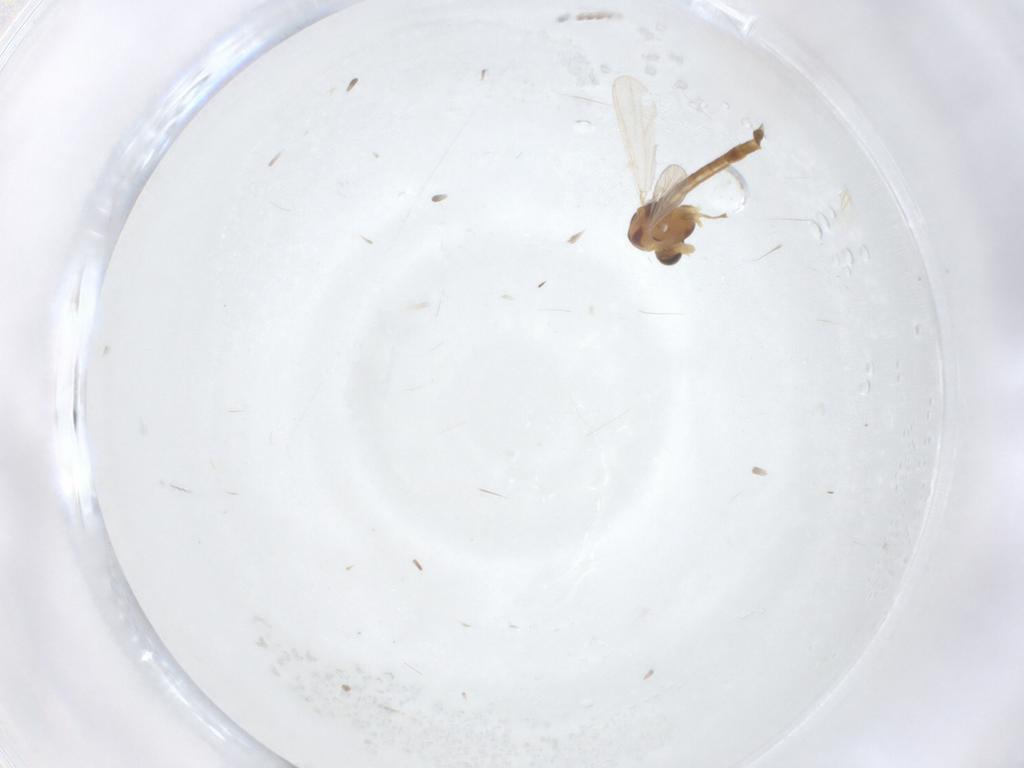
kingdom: Animalia
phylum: Arthropoda
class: Insecta
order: Diptera
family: Chironomidae
